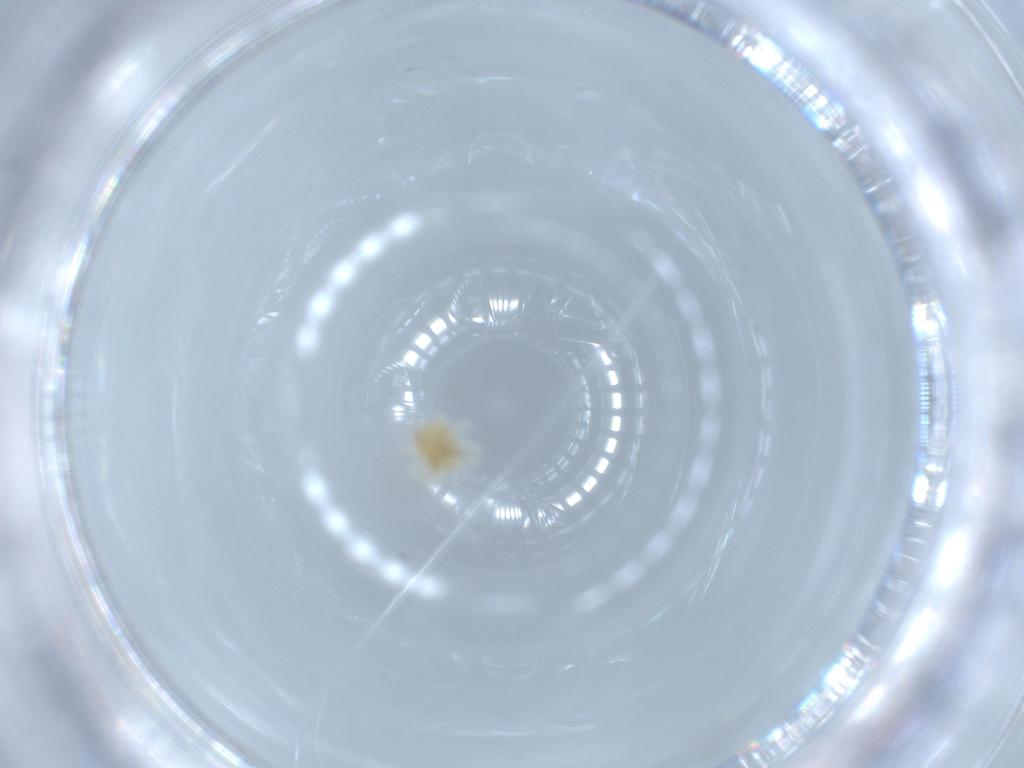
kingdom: Animalia
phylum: Arthropoda
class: Arachnida
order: Trombidiformes
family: Anystidae
